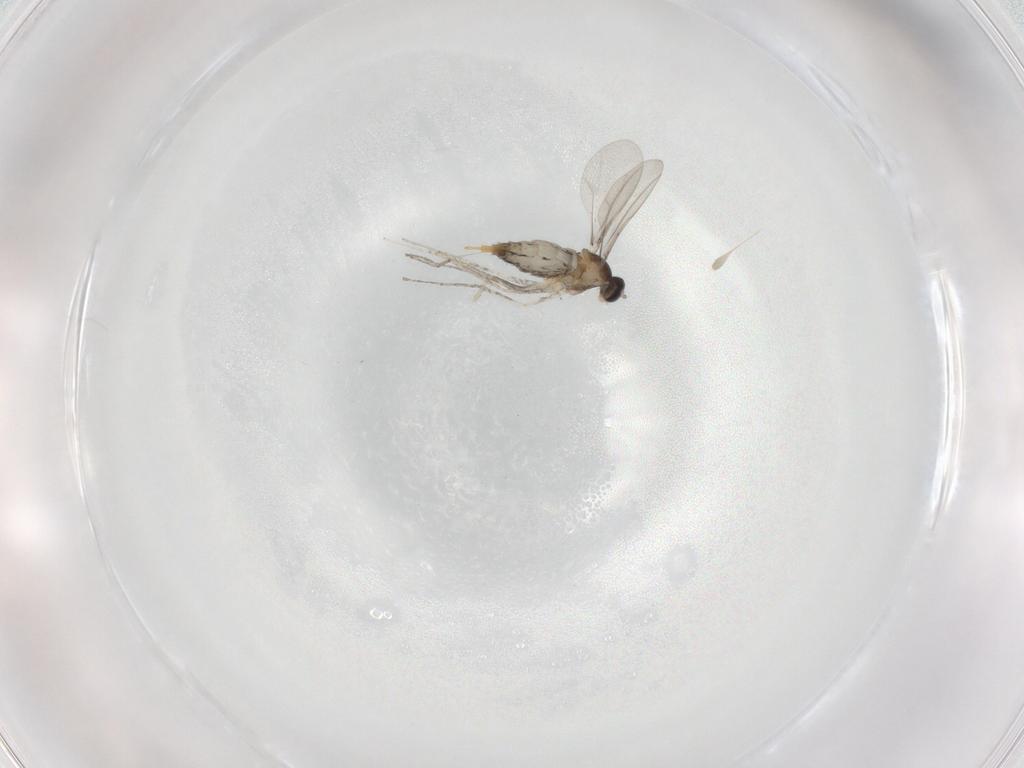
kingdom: Animalia
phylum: Arthropoda
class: Insecta
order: Diptera
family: Cecidomyiidae
